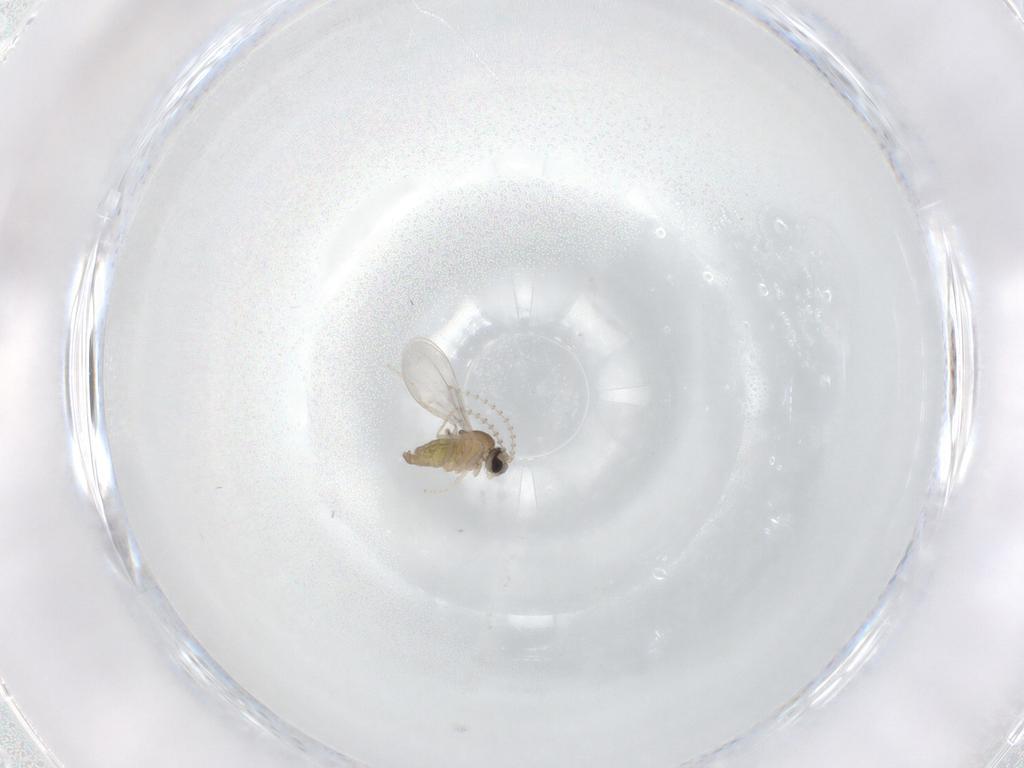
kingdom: Animalia
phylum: Arthropoda
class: Insecta
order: Diptera
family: Cecidomyiidae
